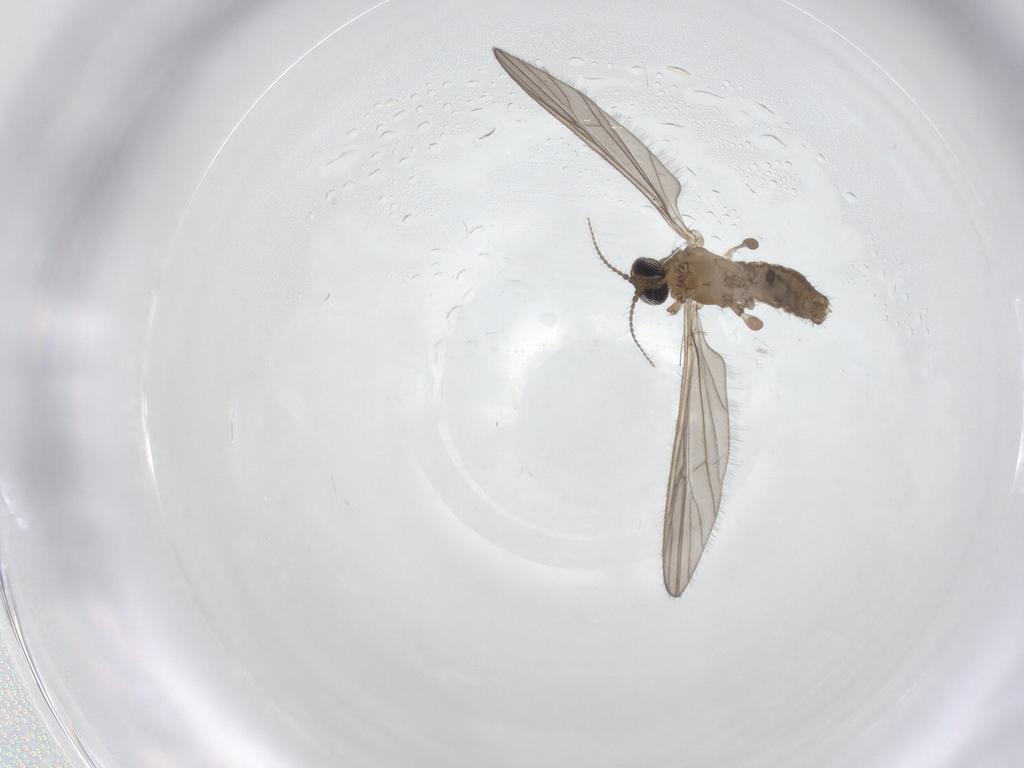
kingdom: Animalia
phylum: Arthropoda
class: Insecta
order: Diptera
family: Limoniidae
